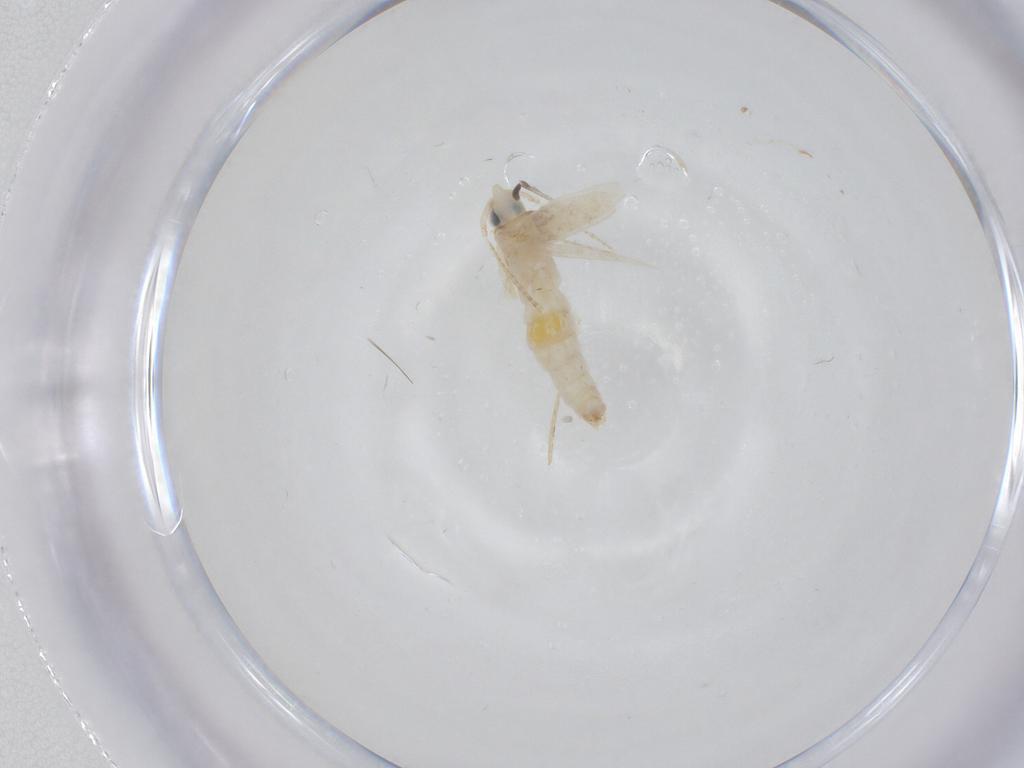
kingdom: Animalia
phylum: Arthropoda
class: Insecta
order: Lepidoptera
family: Tineidae
